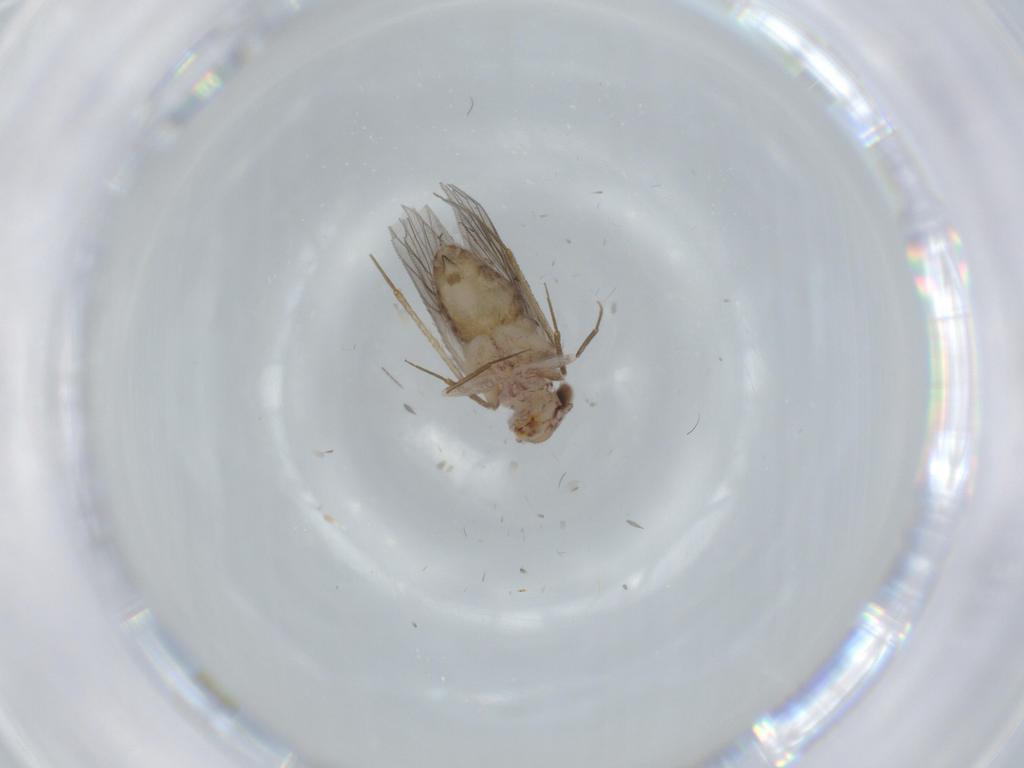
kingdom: Animalia
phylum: Arthropoda
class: Insecta
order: Psocodea
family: Lepidopsocidae
